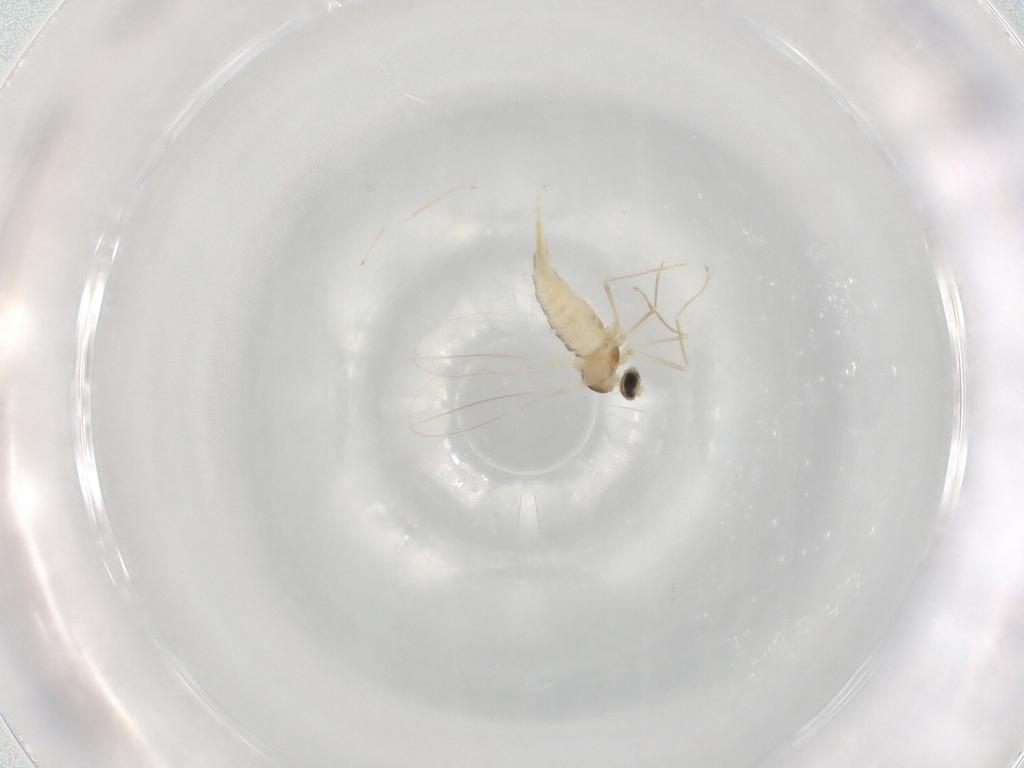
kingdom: Animalia
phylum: Arthropoda
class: Insecta
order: Diptera
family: Cecidomyiidae
